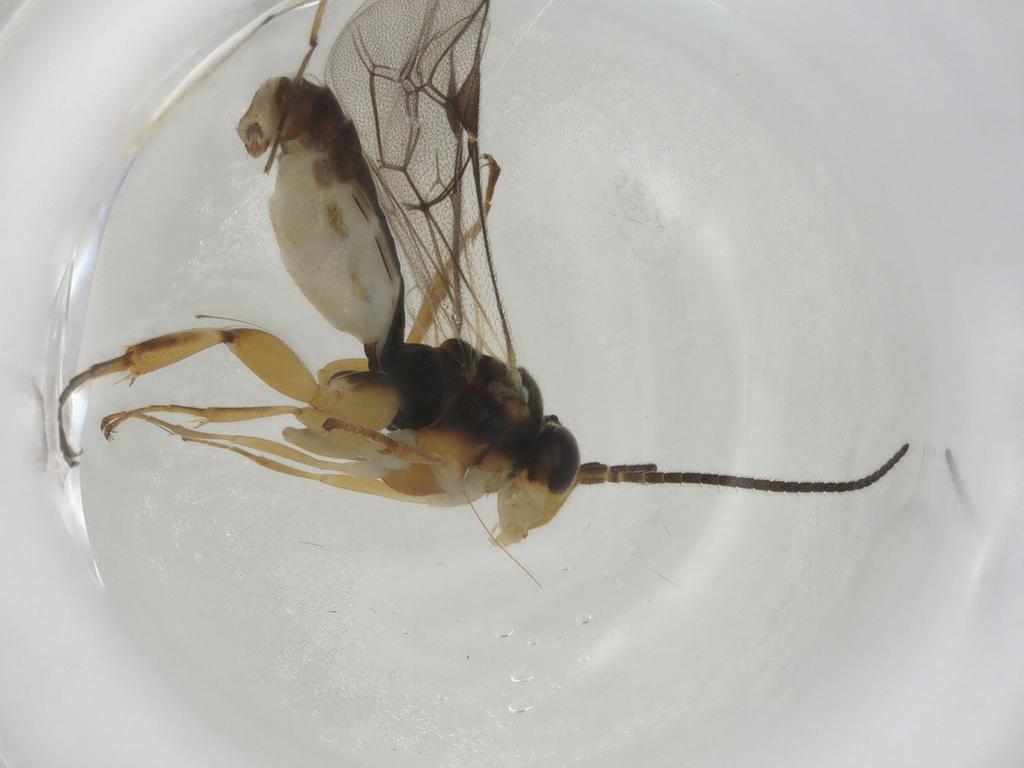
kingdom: Animalia
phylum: Arthropoda
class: Insecta
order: Hymenoptera
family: Ichneumonidae
